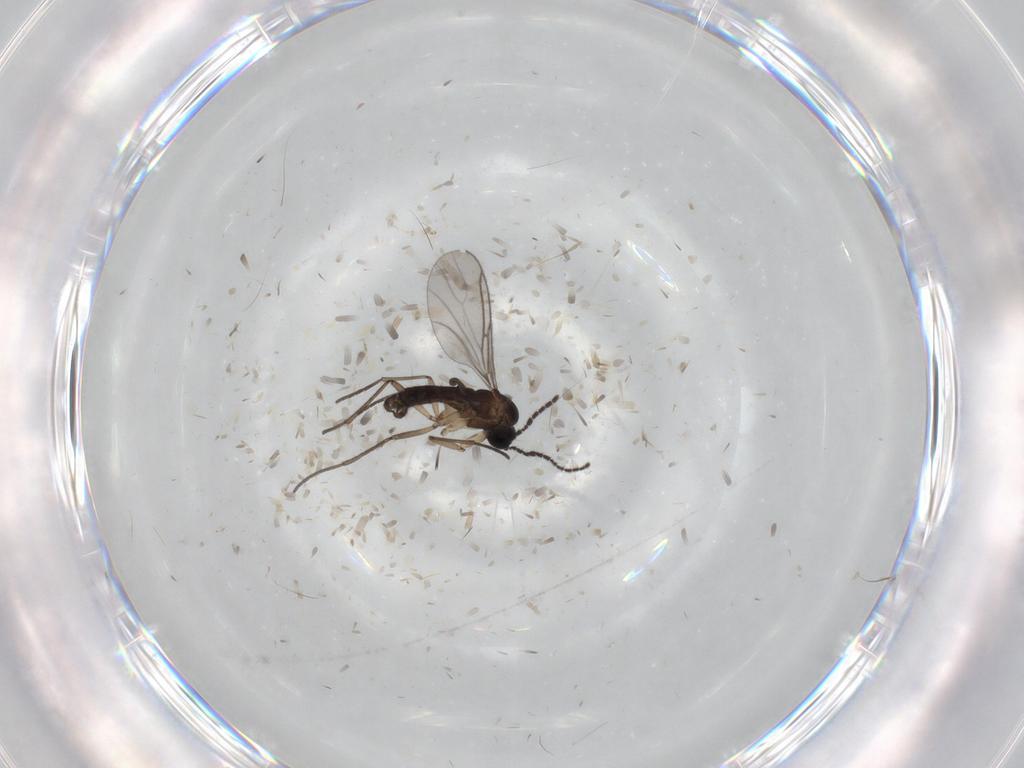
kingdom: Animalia
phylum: Arthropoda
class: Insecta
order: Diptera
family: Sciaridae
